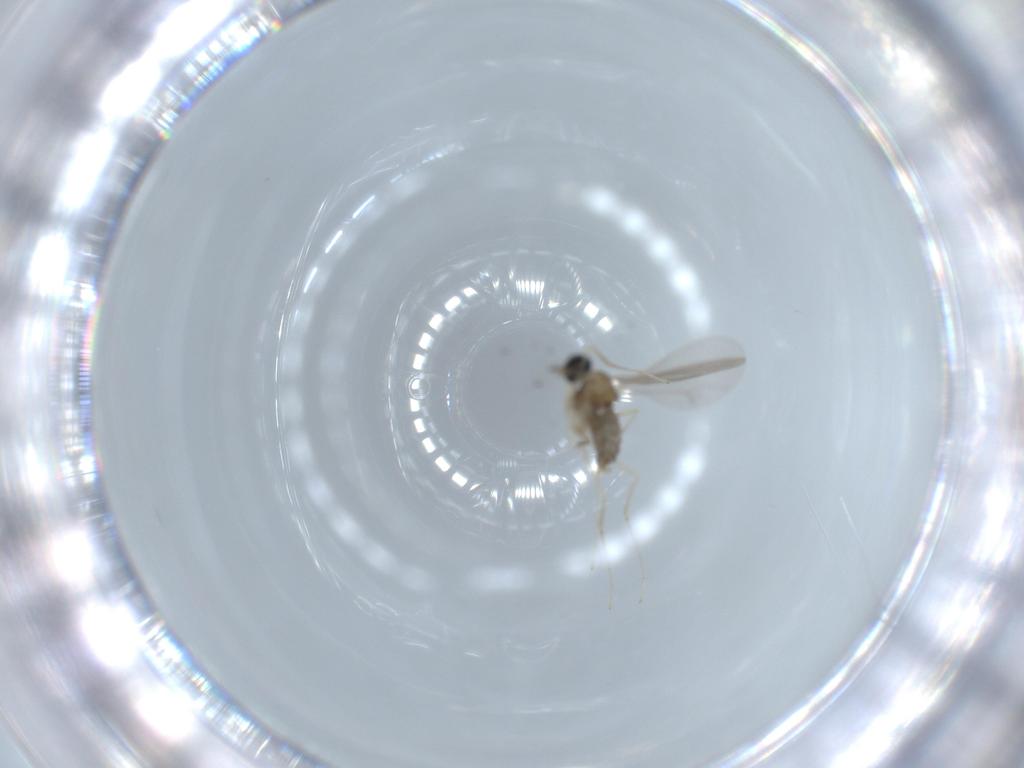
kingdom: Animalia
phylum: Arthropoda
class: Insecta
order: Diptera
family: Cecidomyiidae
